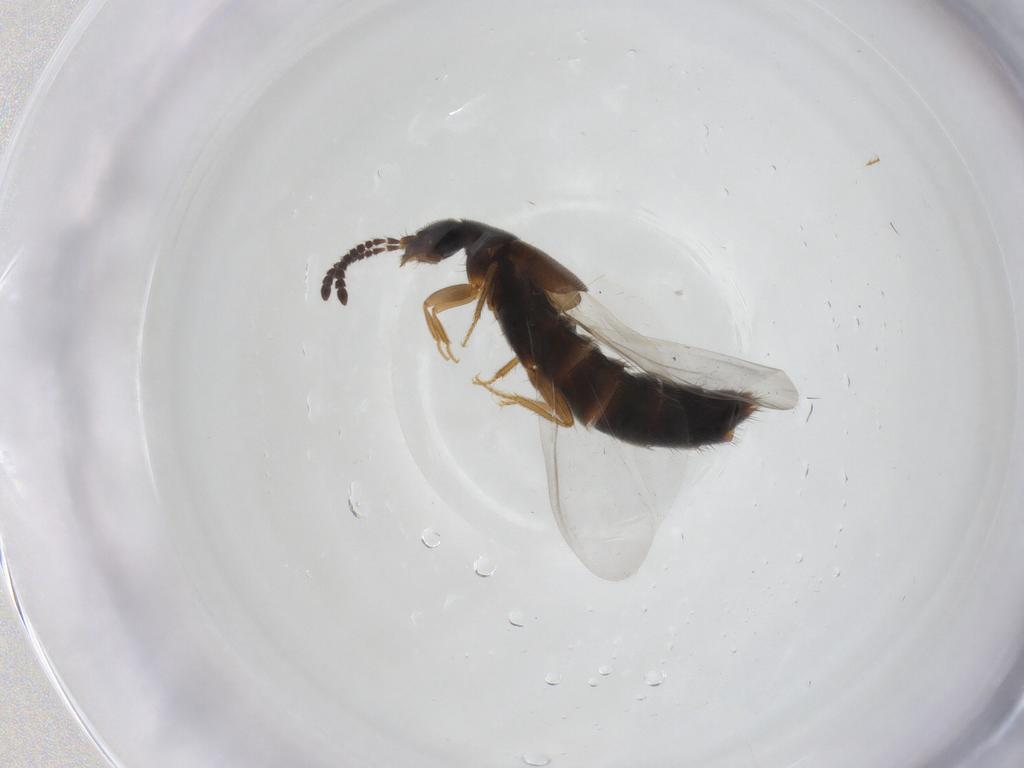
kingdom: Animalia
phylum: Arthropoda
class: Insecta
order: Coleoptera
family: Staphylinidae
